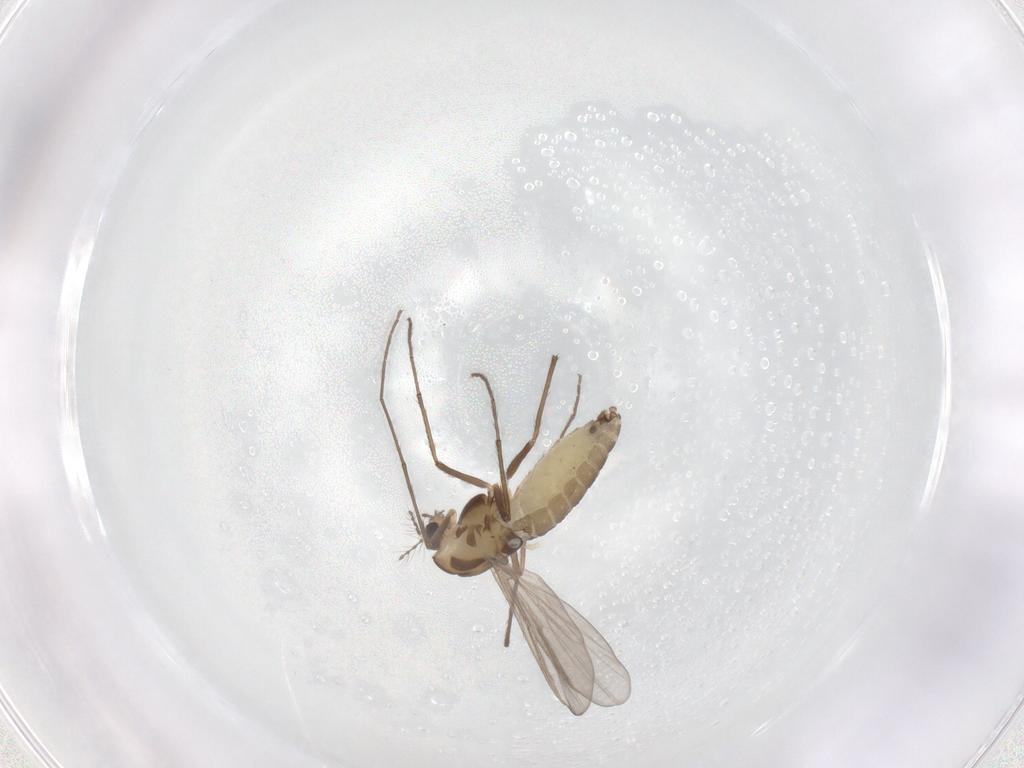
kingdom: Animalia
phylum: Arthropoda
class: Insecta
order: Diptera
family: Chironomidae
